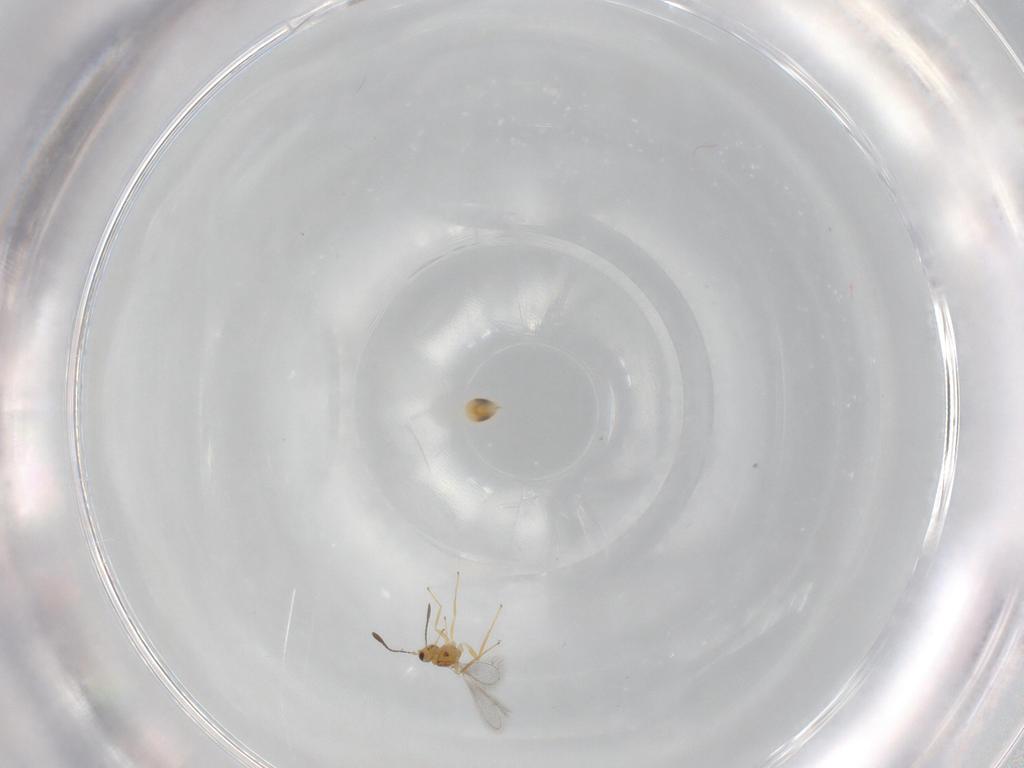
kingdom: Animalia
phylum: Arthropoda
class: Insecta
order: Hymenoptera
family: Mymaridae
